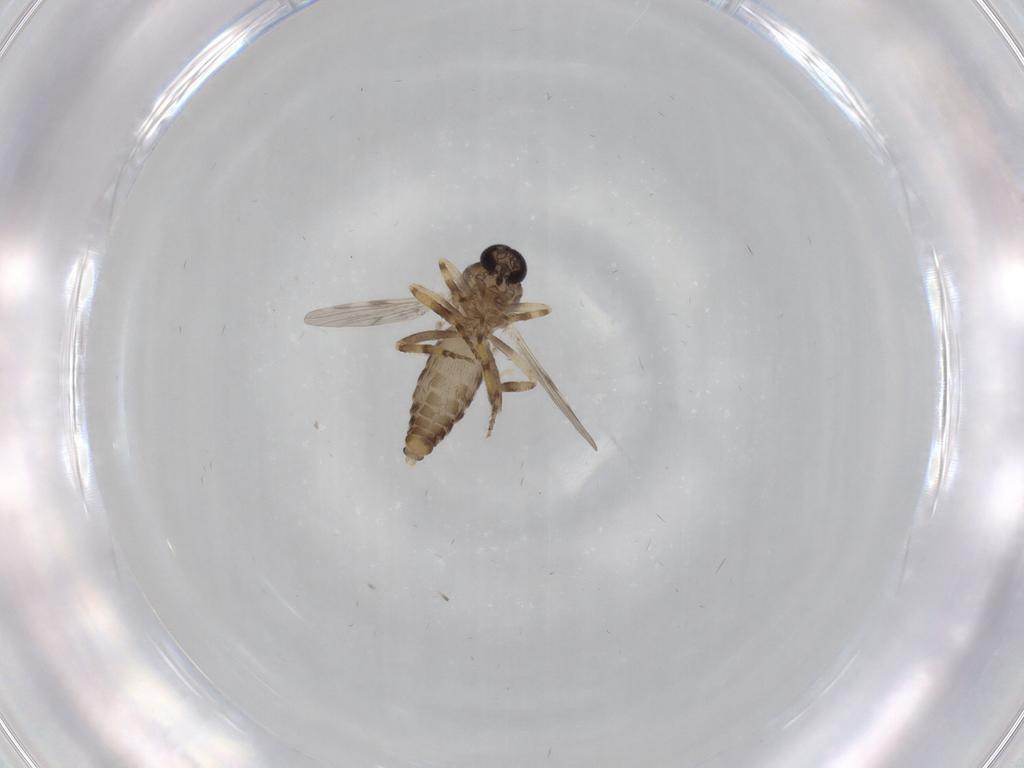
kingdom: Animalia
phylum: Arthropoda
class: Insecta
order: Diptera
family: Ceratopogonidae
